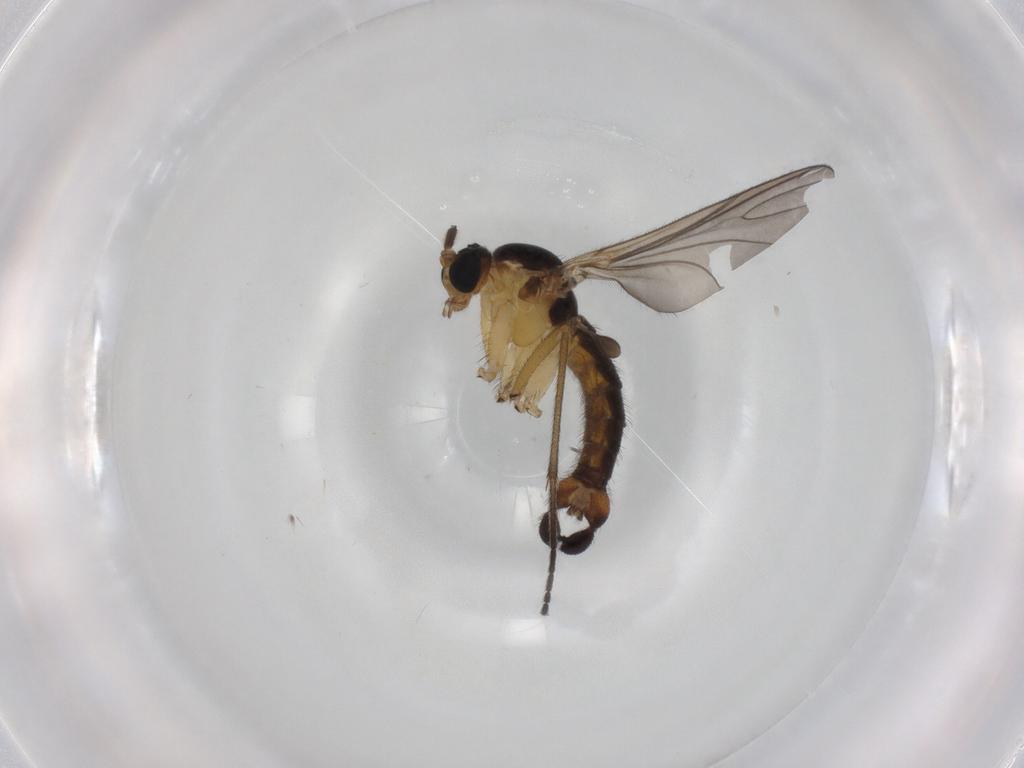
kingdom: Animalia
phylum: Arthropoda
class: Insecta
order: Diptera
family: Sciaridae
